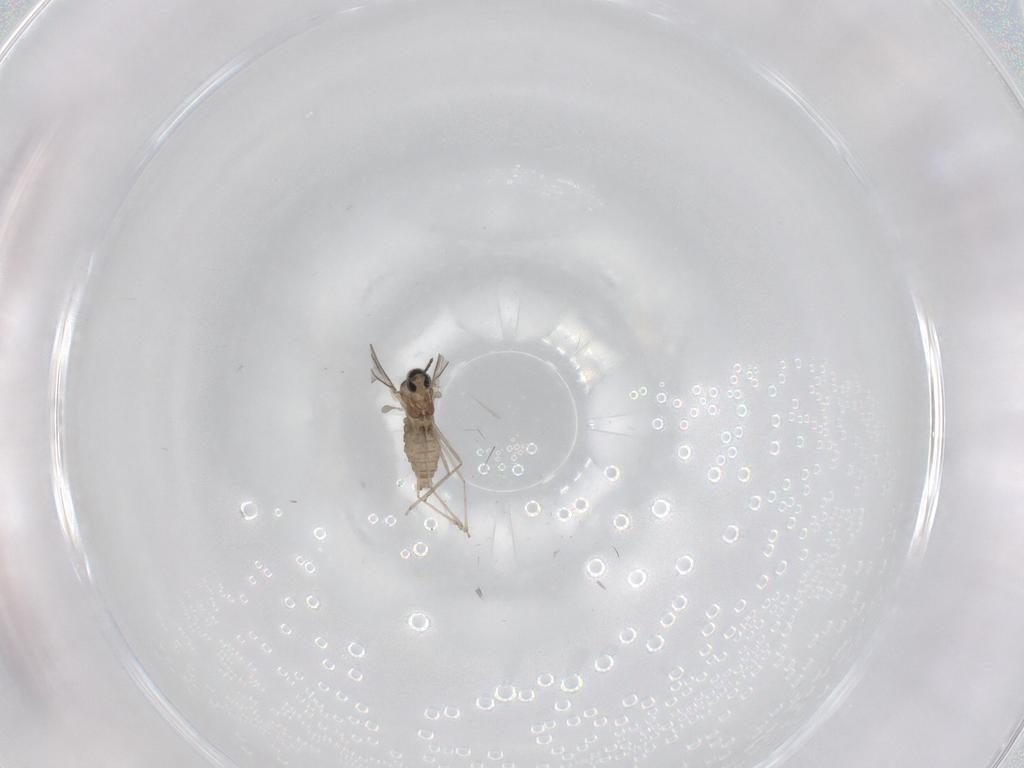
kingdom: Animalia
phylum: Arthropoda
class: Insecta
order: Diptera
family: Cecidomyiidae
